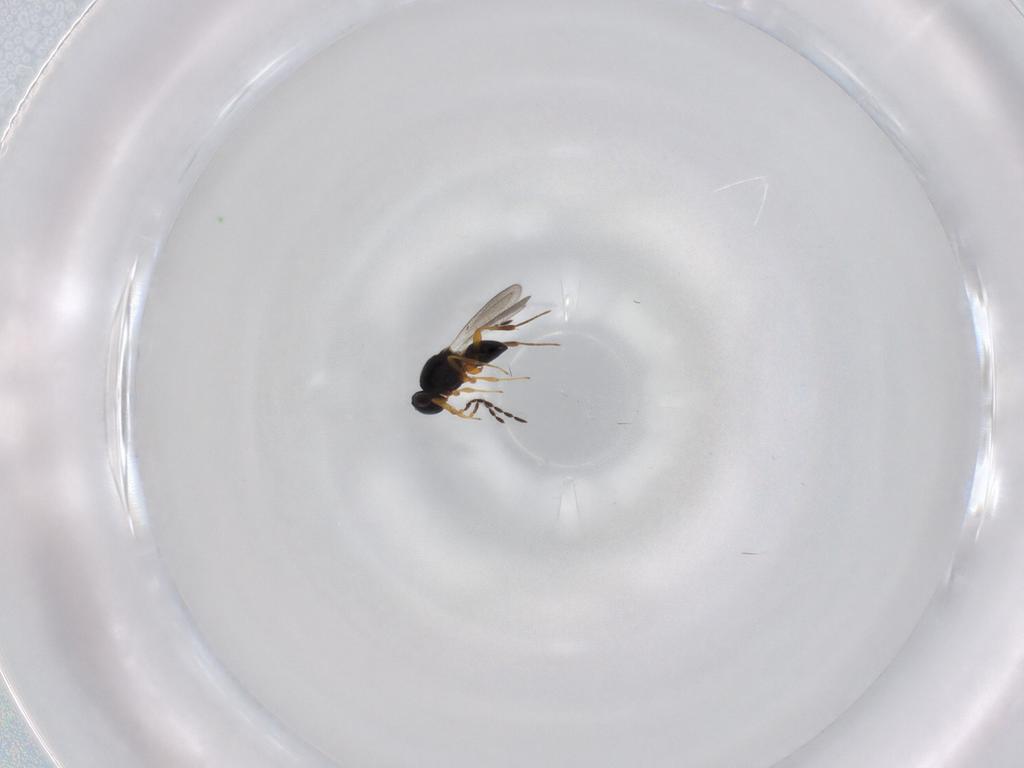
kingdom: Animalia
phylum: Arthropoda
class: Insecta
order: Hymenoptera
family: Platygastridae
